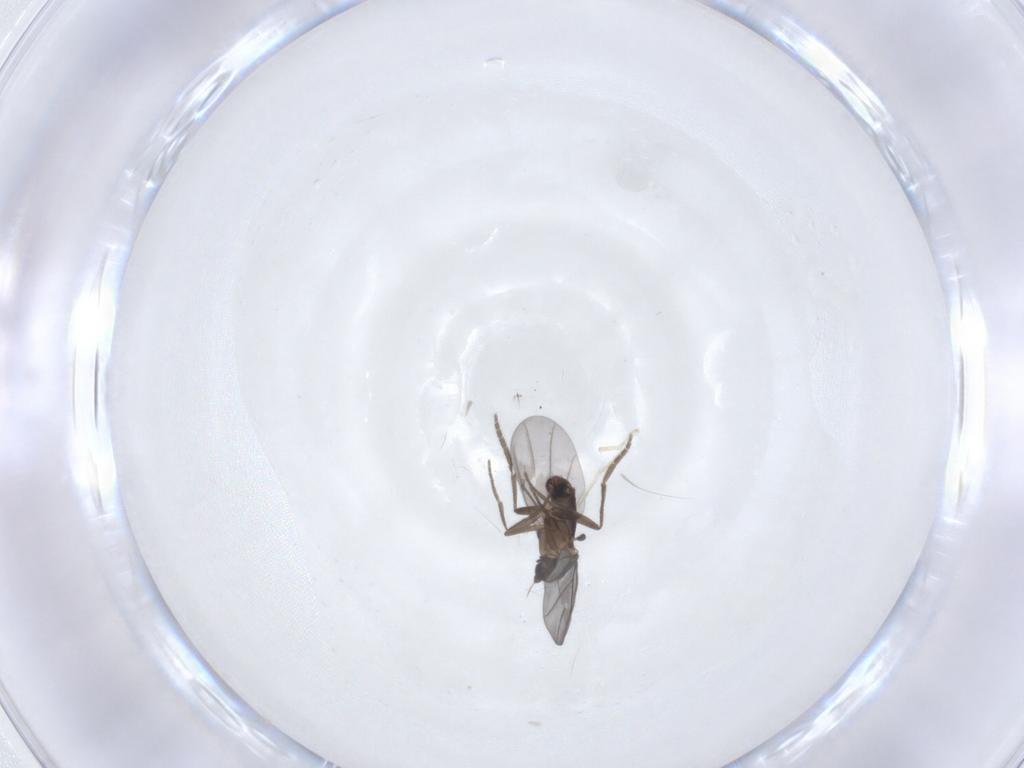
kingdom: Animalia
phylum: Arthropoda
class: Insecta
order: Diptera
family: Phoridae
